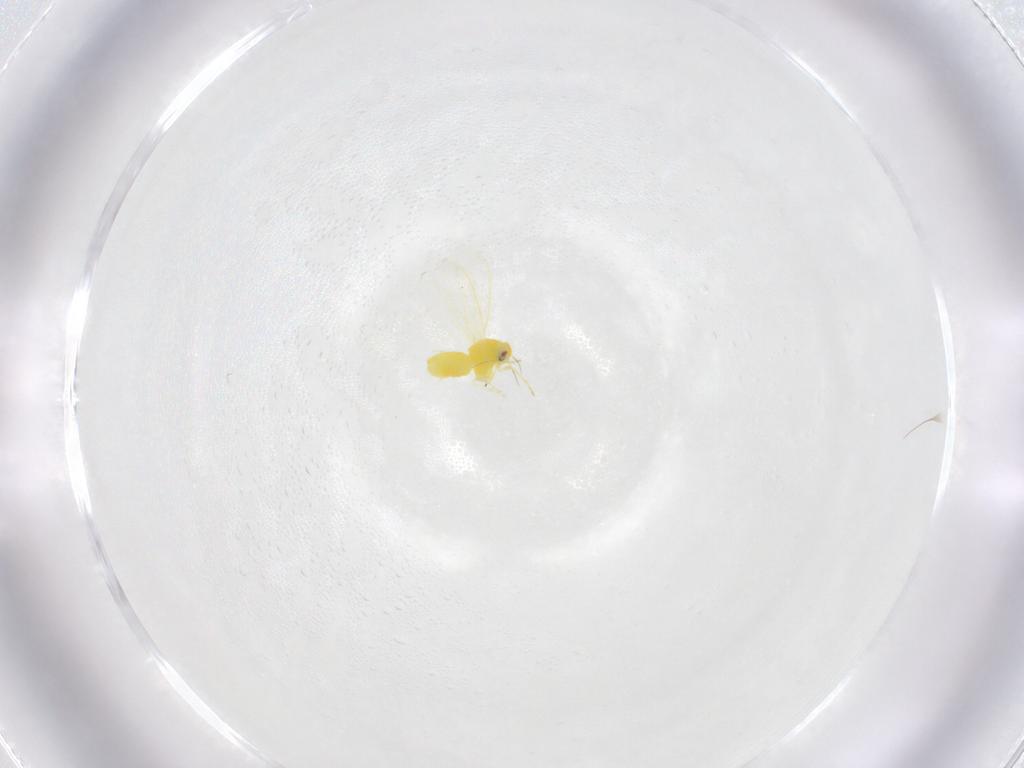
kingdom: Animalia
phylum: Arthropoda
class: Insecta
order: Hemiptera
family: Aleyrodidae
